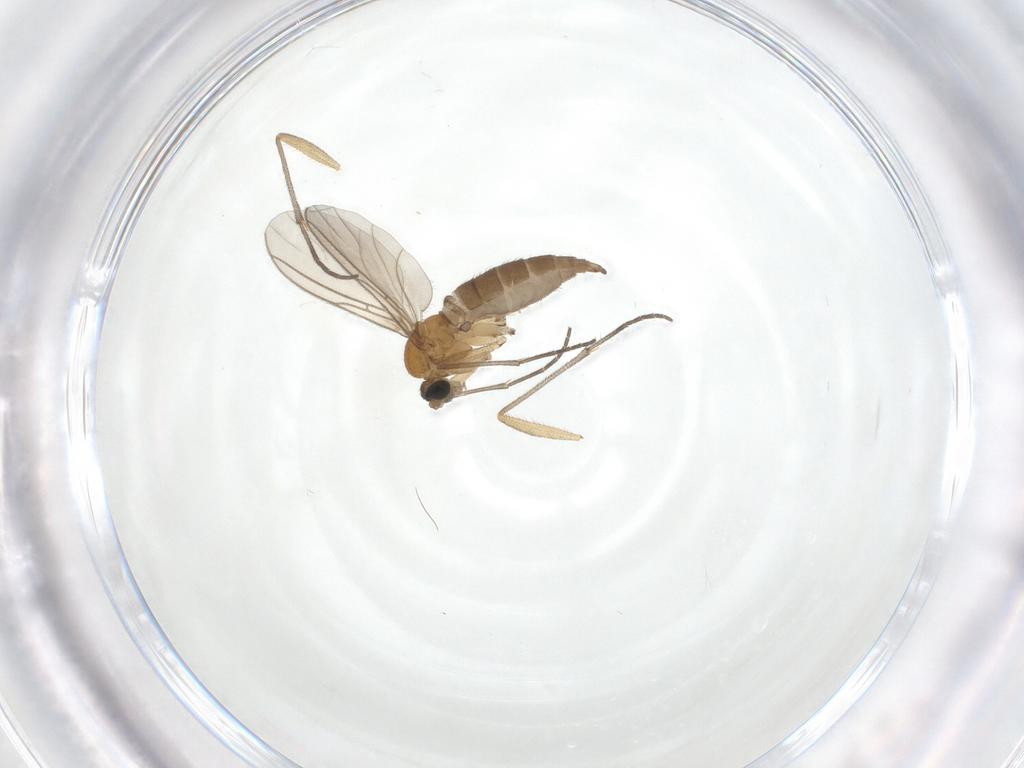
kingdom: Animalia
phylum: Arthropoda
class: Insecta
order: Diptera
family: Sciaridae
